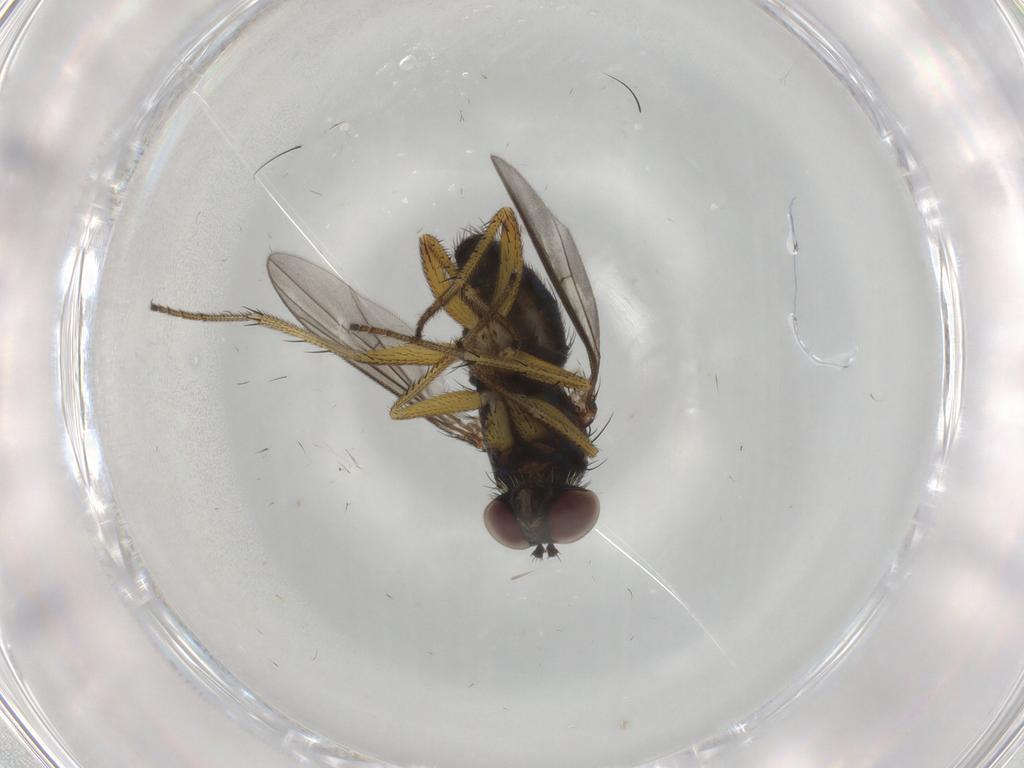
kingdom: Animalia
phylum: Arthropoda
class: Insecta
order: Diptera
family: Dolichopodidae
